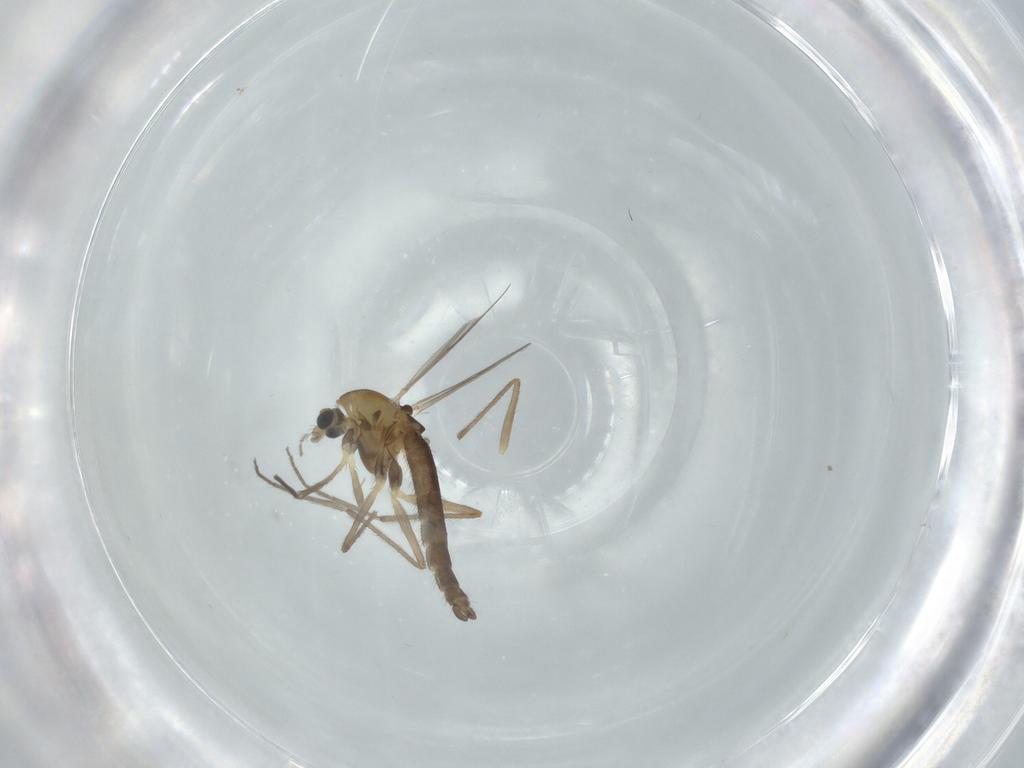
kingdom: Animalia
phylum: Arthropoda
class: Insecta
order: Diptera
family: Chironomidae
